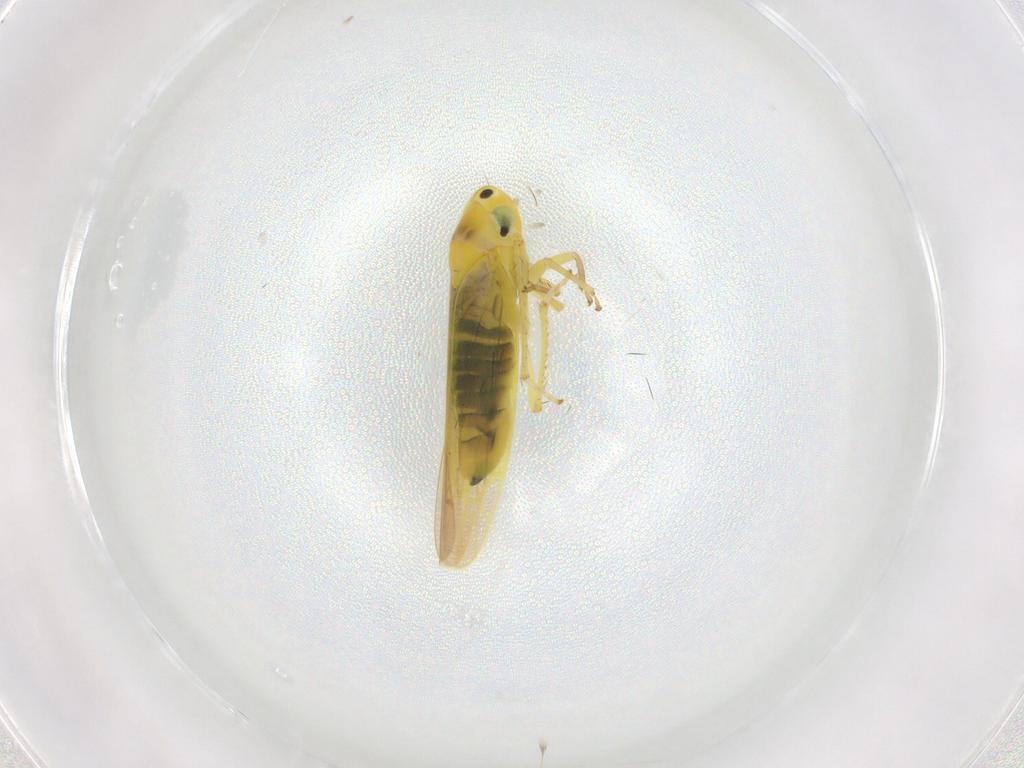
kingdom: Animalia
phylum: Arthropoda
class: Insecta
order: Hemiptera
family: Cicadellidae
